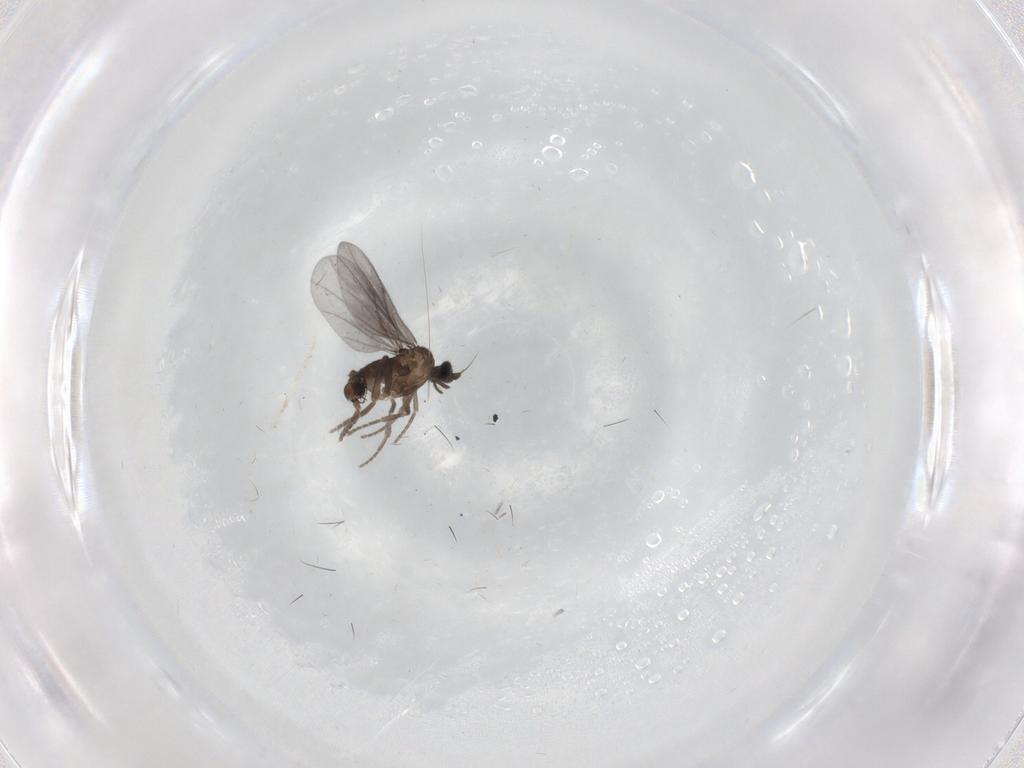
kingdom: Animalia
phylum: Arthropoda
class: Insecta
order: Diptera
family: Phoridae
